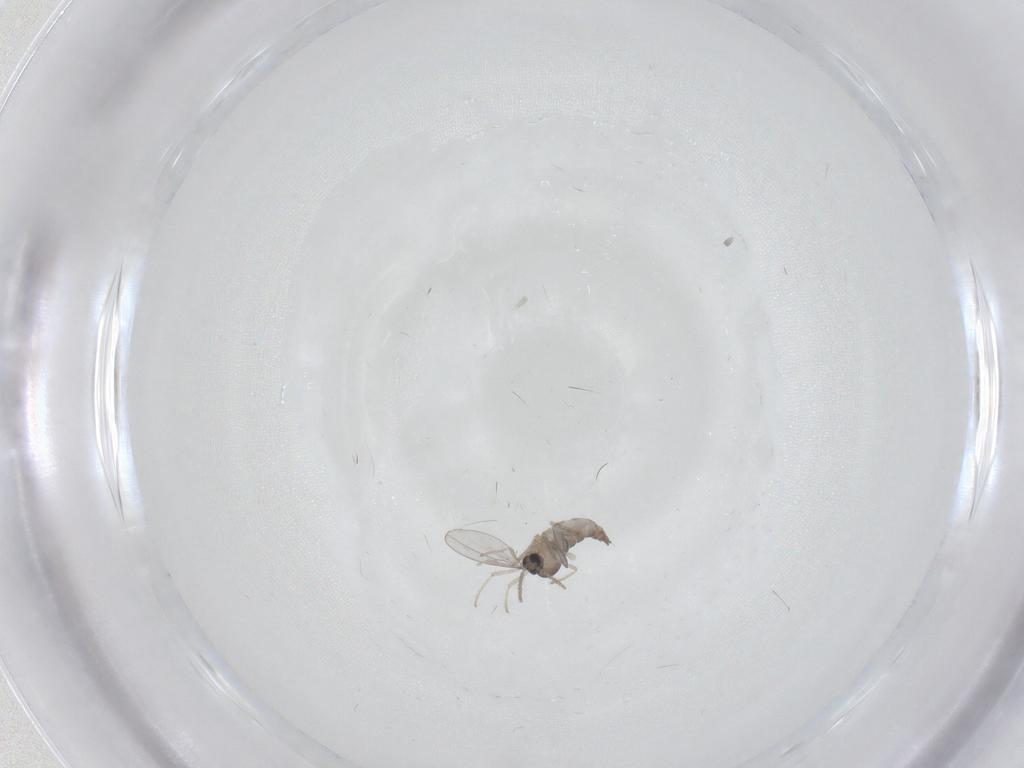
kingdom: Animalia
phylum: Arthropoda
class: Insecta
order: Diptera
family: Cecidomyiidae
